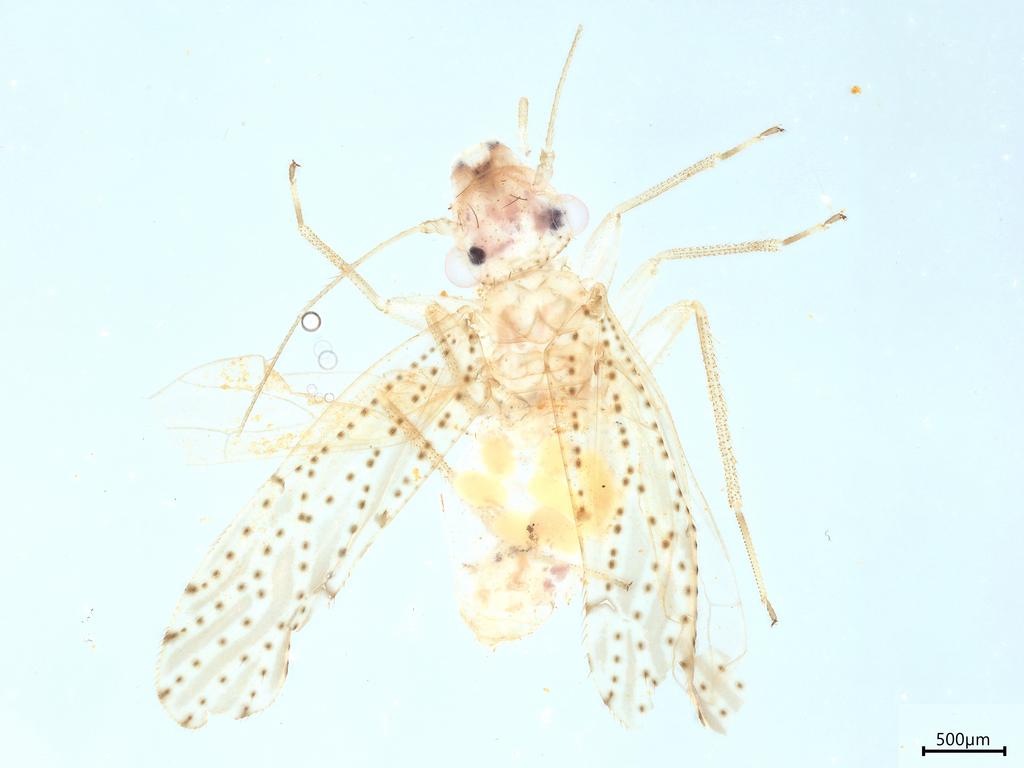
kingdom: Animalia
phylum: Arthropoda
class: Insecta
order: Psocodea
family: Philotarsidae
